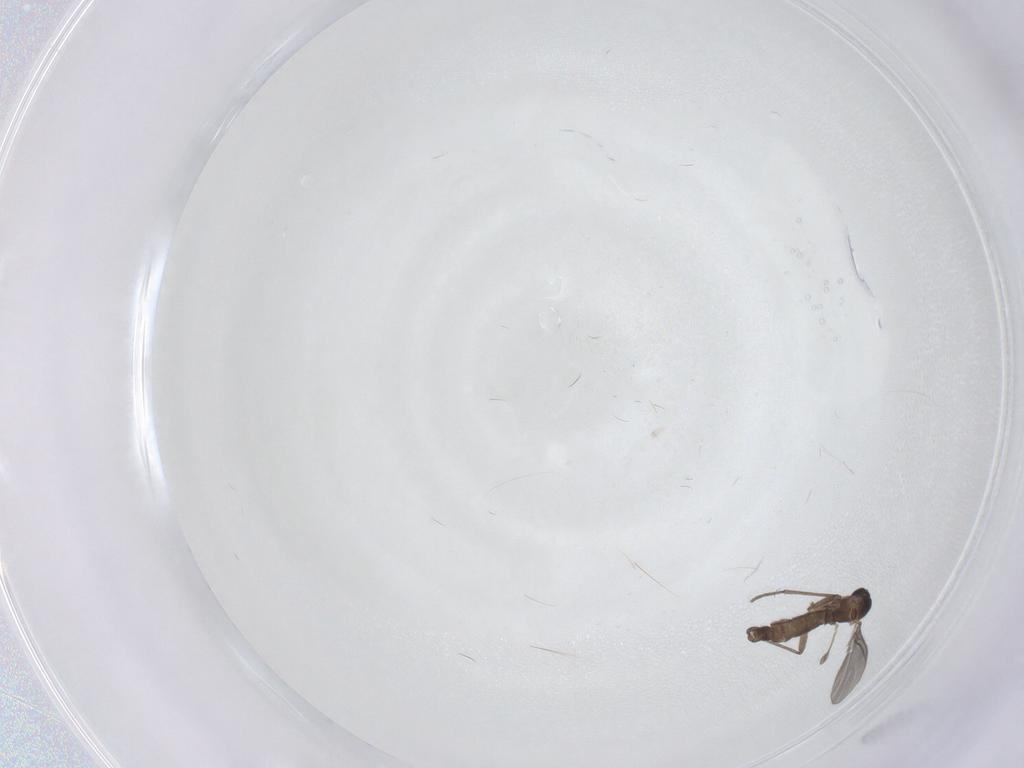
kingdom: Animalia
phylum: Arthropoda
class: Insecta
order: Diptera
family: Sciaridae
